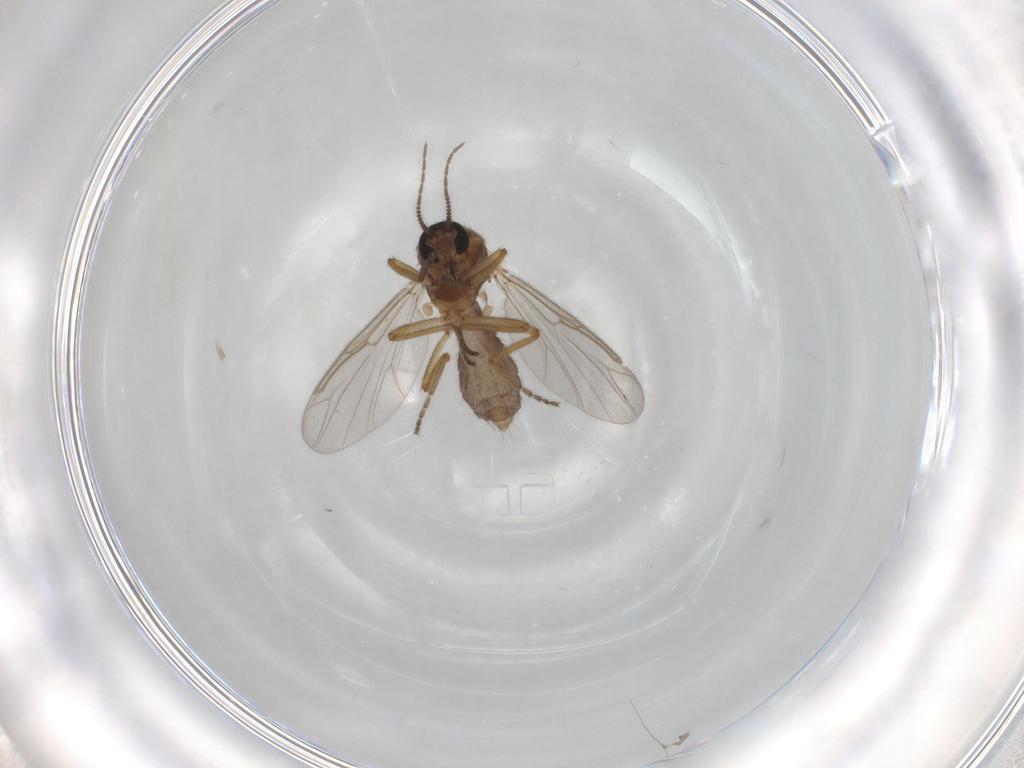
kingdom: Animalia
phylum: Arthropoda
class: Insecta
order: Diptera
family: Ceratopogonidae
